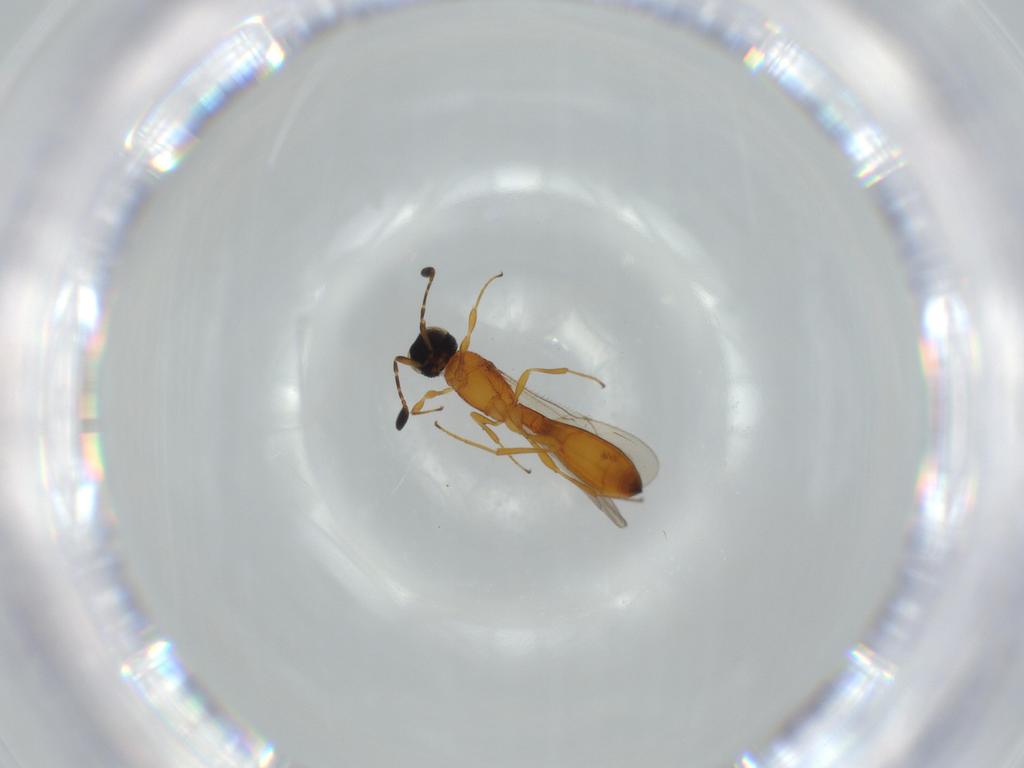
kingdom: Animalia
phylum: Arthropoda
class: Insecta
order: Hymenoptera
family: Scelionidae
